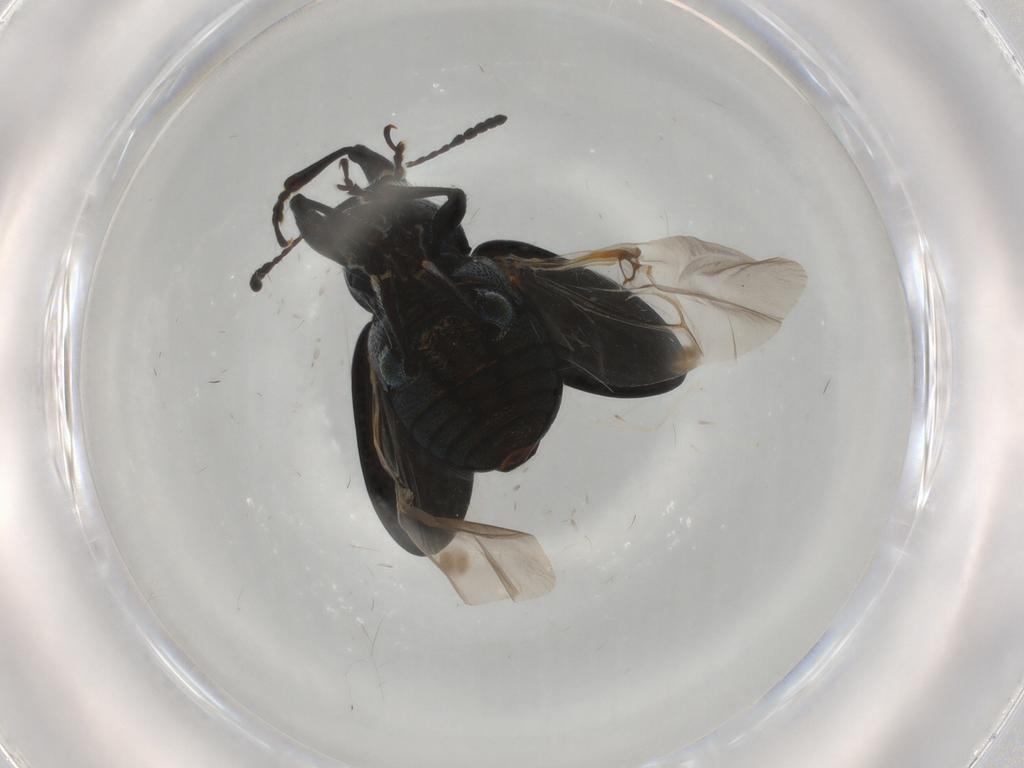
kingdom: Animalia
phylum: Arthropoda
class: Insecta
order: Coleoptera
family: Chrysomelidae
